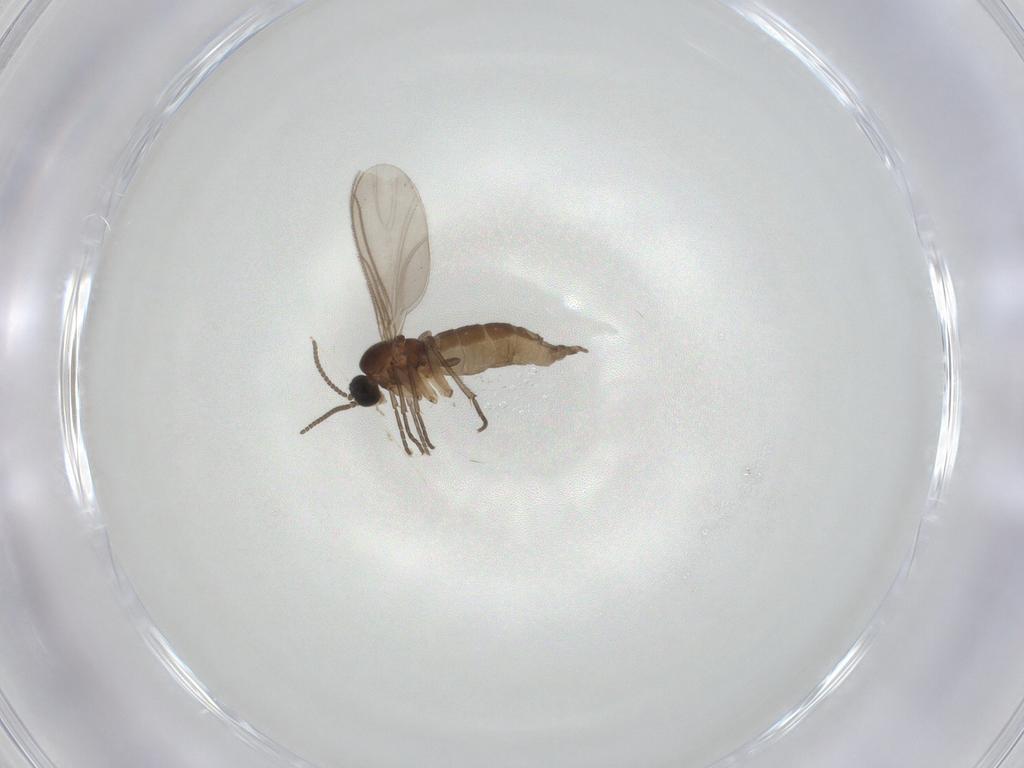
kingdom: Animalia
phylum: Arthropoda
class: Insecta
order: Diptera
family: Sciaridae
